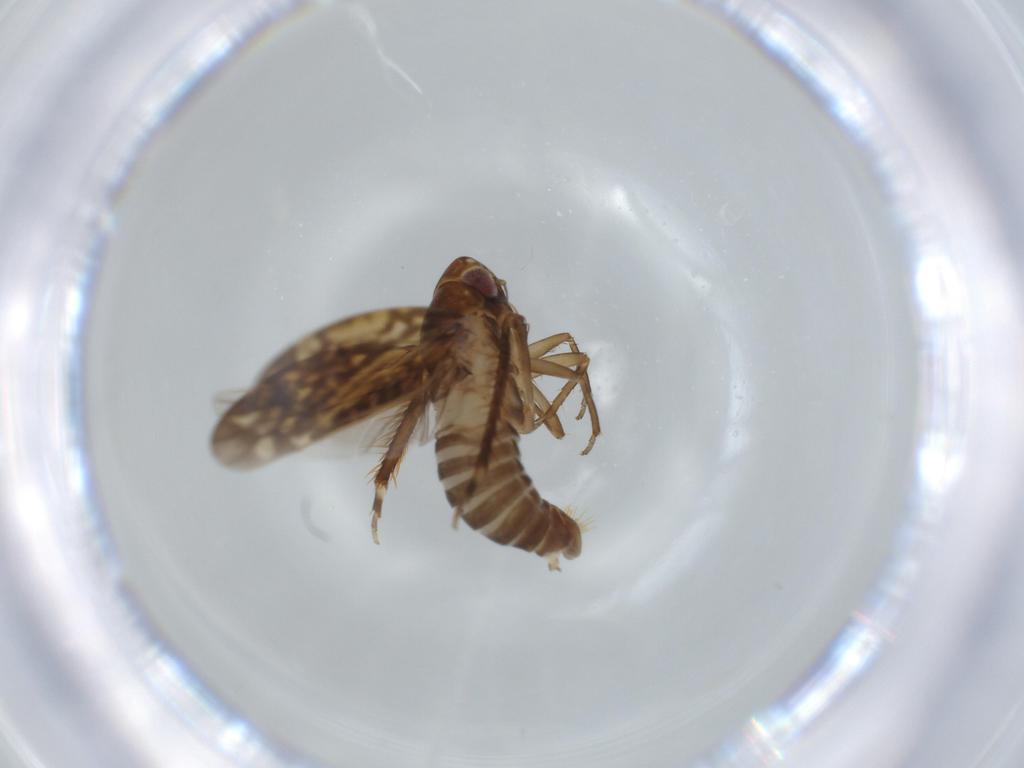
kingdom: Animalia
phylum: Arthropoda
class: Insecta
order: Hemiptera
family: Cicadellidae
